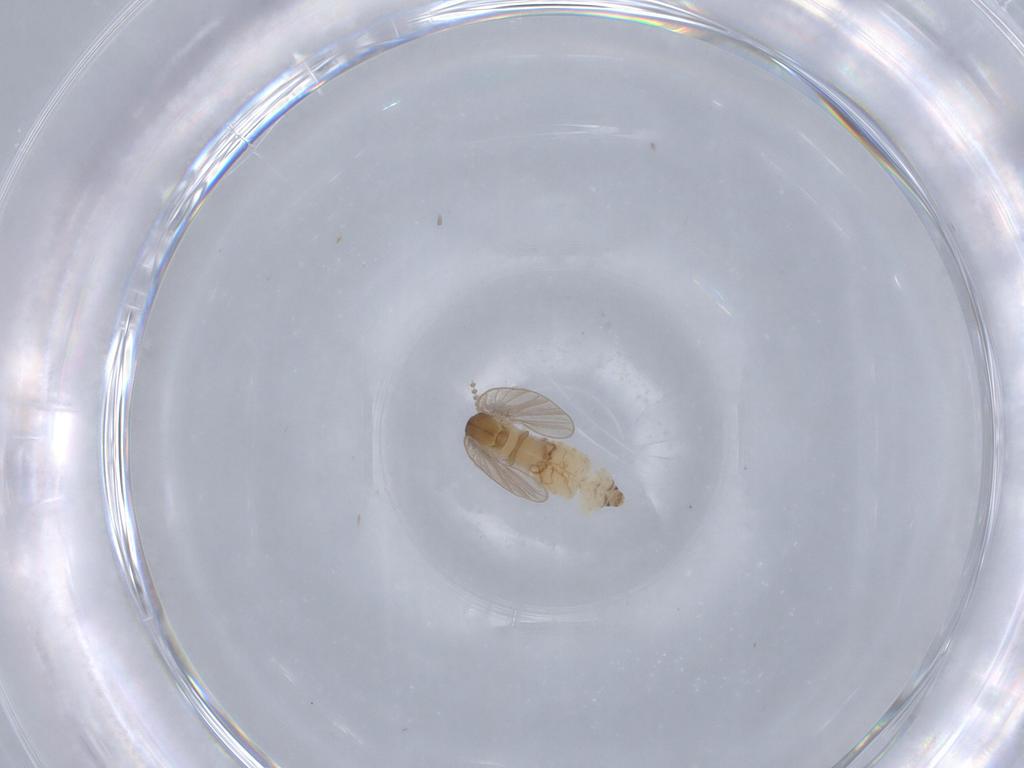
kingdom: Animalia
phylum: Arthropoda
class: Insecta
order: Diptera
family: Psychodidae
